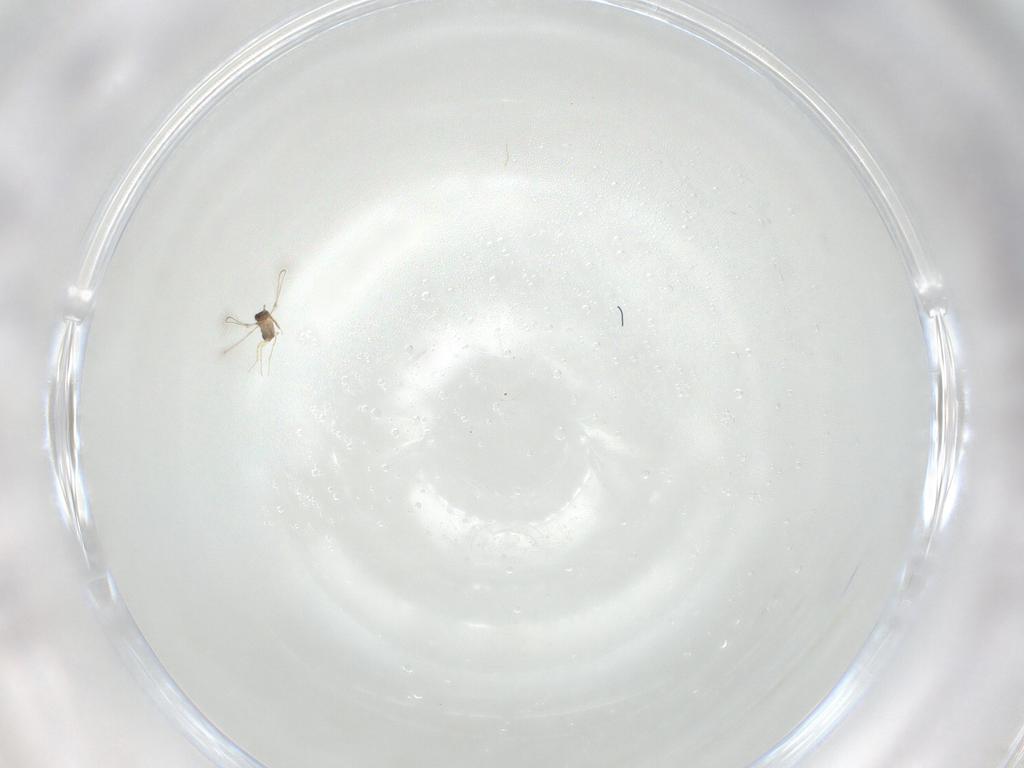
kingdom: Animalia
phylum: Arthropoda
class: Insecta
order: Hymenoptera
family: Mymaridae
